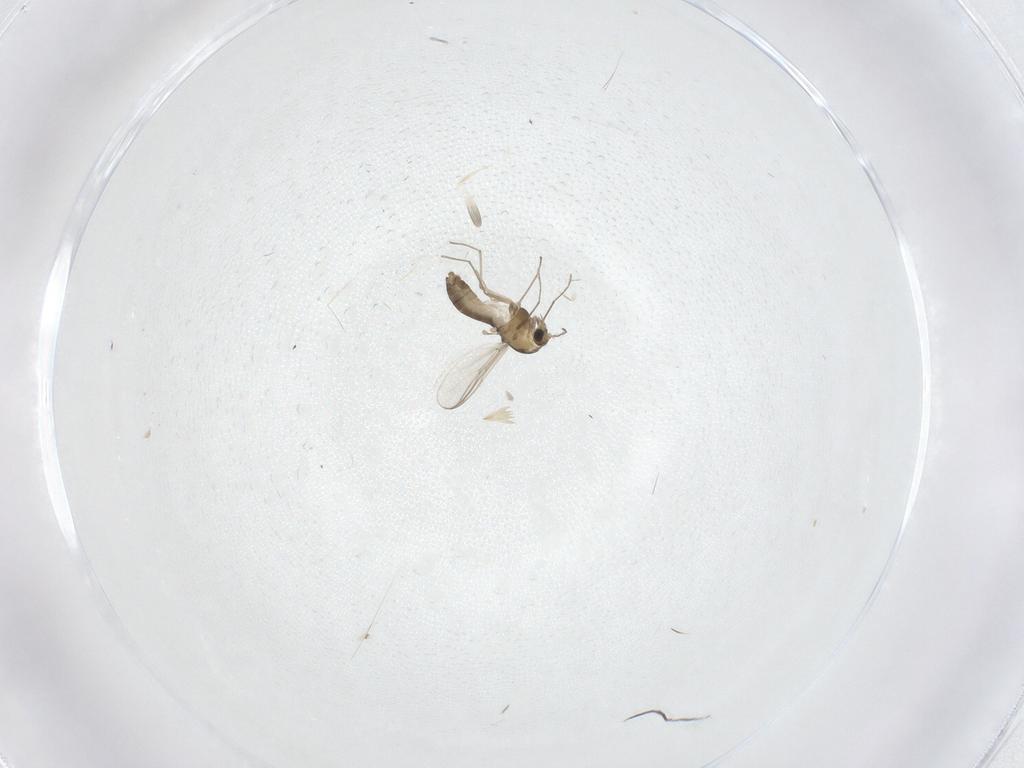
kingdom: Animalia
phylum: Arthropoda
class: Insecta
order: Diptera
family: Chironomidae
